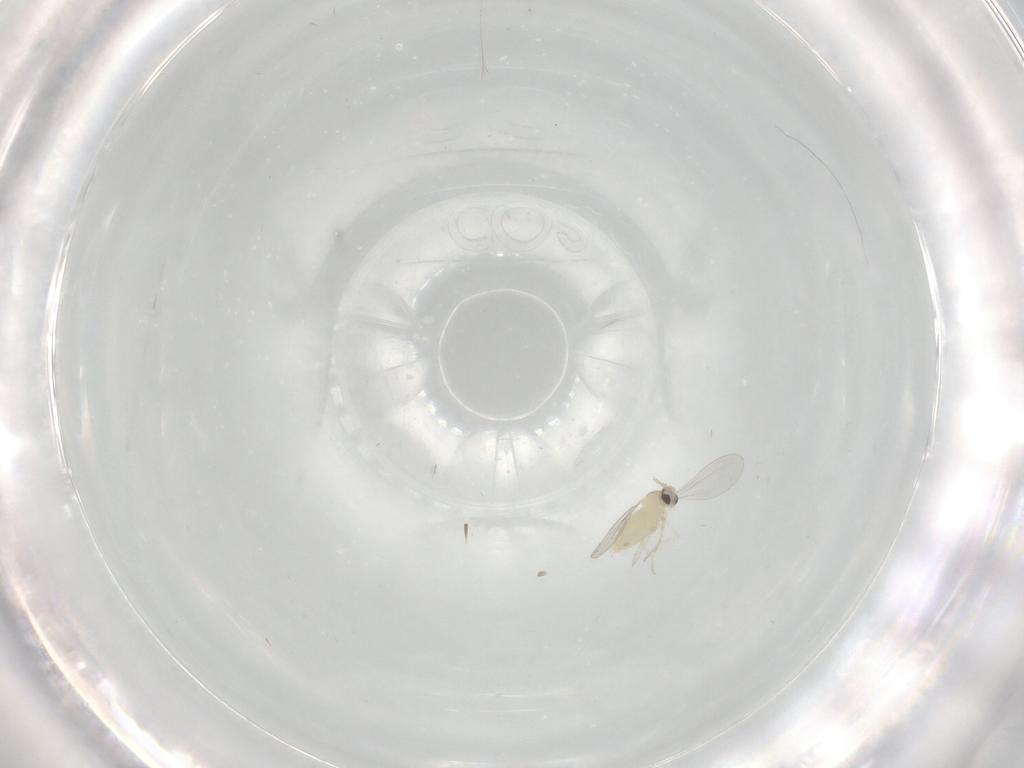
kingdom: Animalia
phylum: Arthropoda
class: Insecta
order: Diptera
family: Cecidomyiidae
